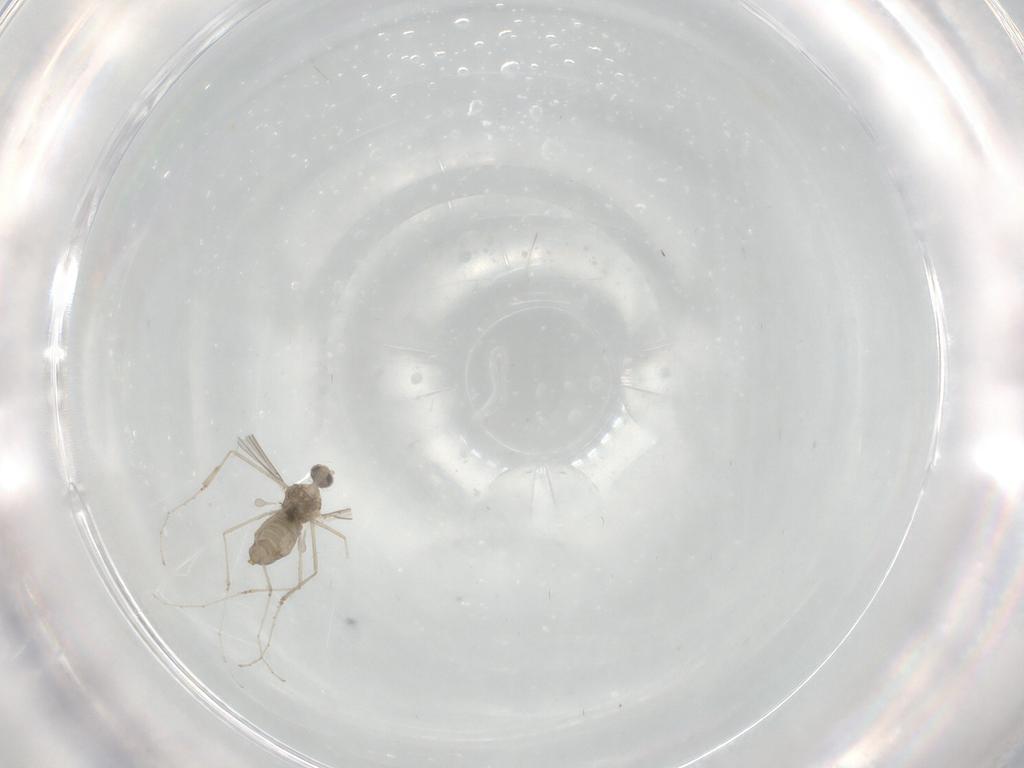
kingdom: Animalia
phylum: Arthropoda
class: Insecta
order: Diptera
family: Cecidomyiidae
